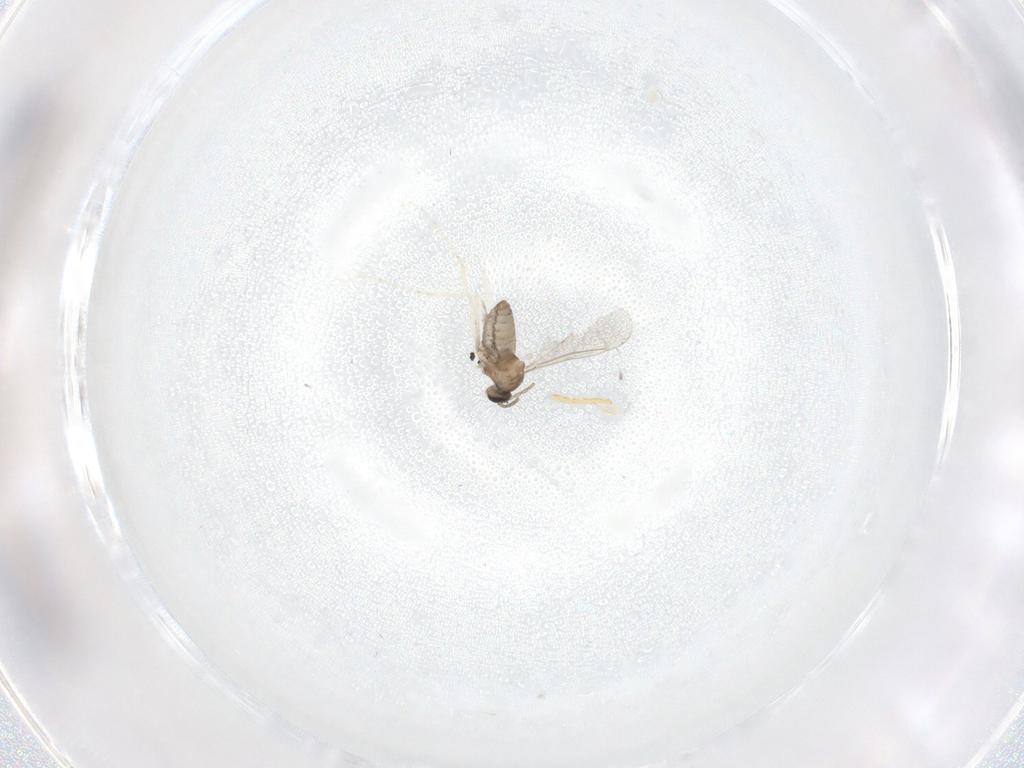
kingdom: Animalia
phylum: Arthropoda
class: Insecta
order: Diptera
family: Cecidomyiidae
